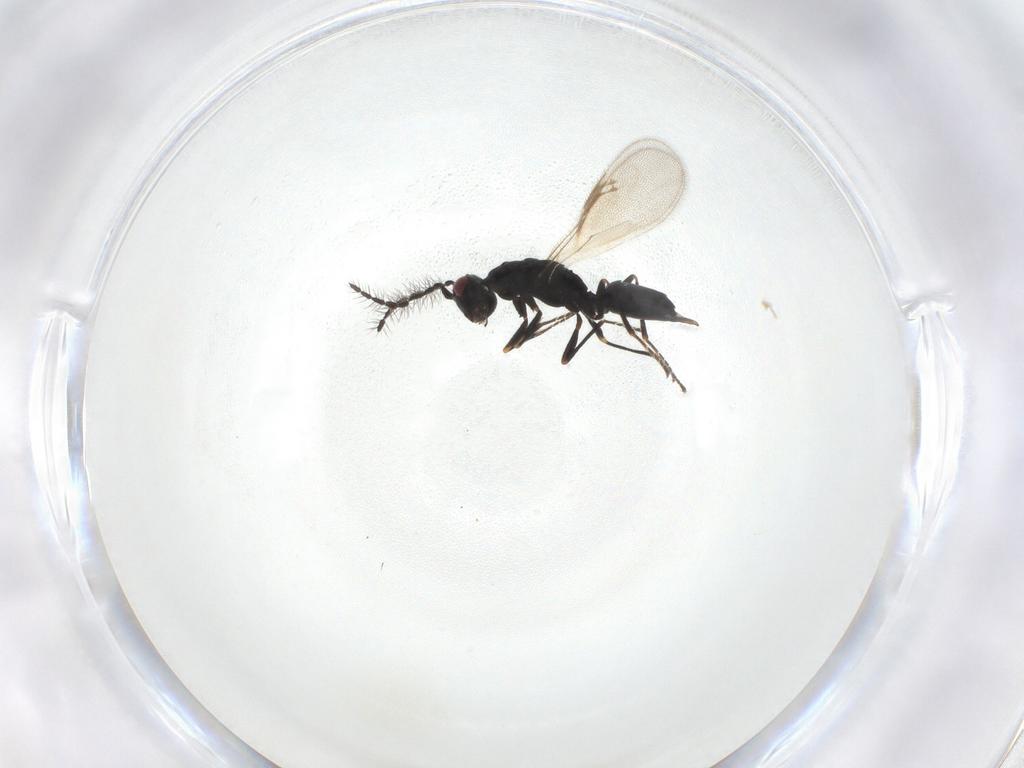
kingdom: Animalia
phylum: Arthropoda
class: Insecta
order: Hymenoptera
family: Eurytomidae
